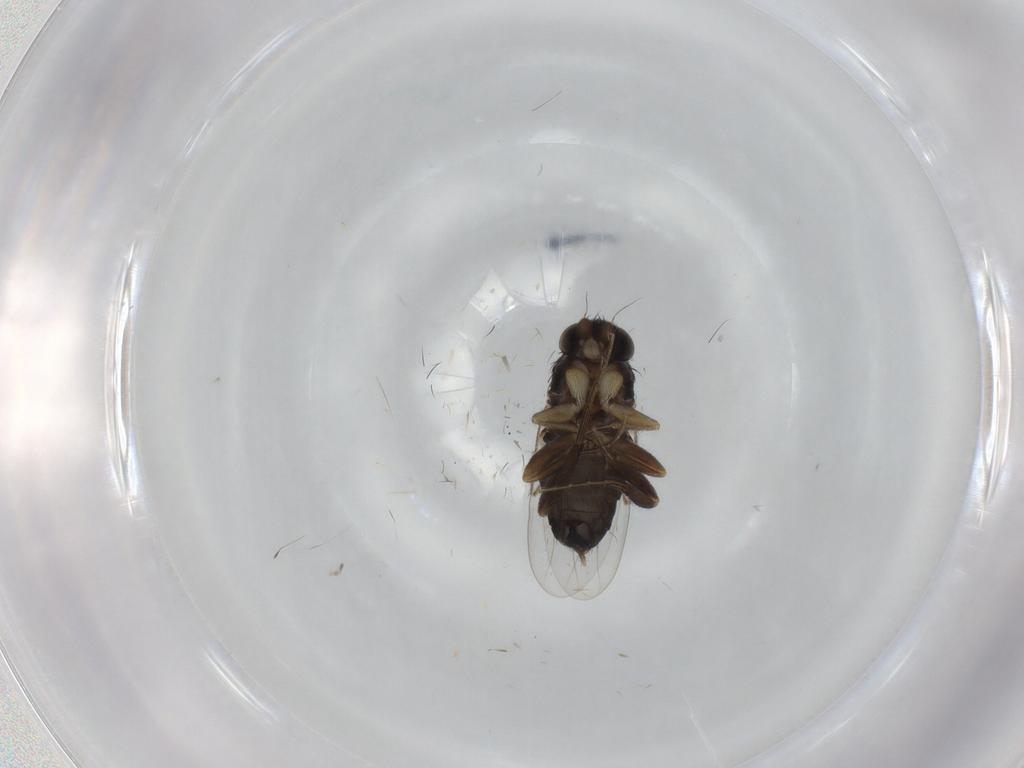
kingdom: Animalia
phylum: Arthropoda
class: Insecta
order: Diptera
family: Phoridae
